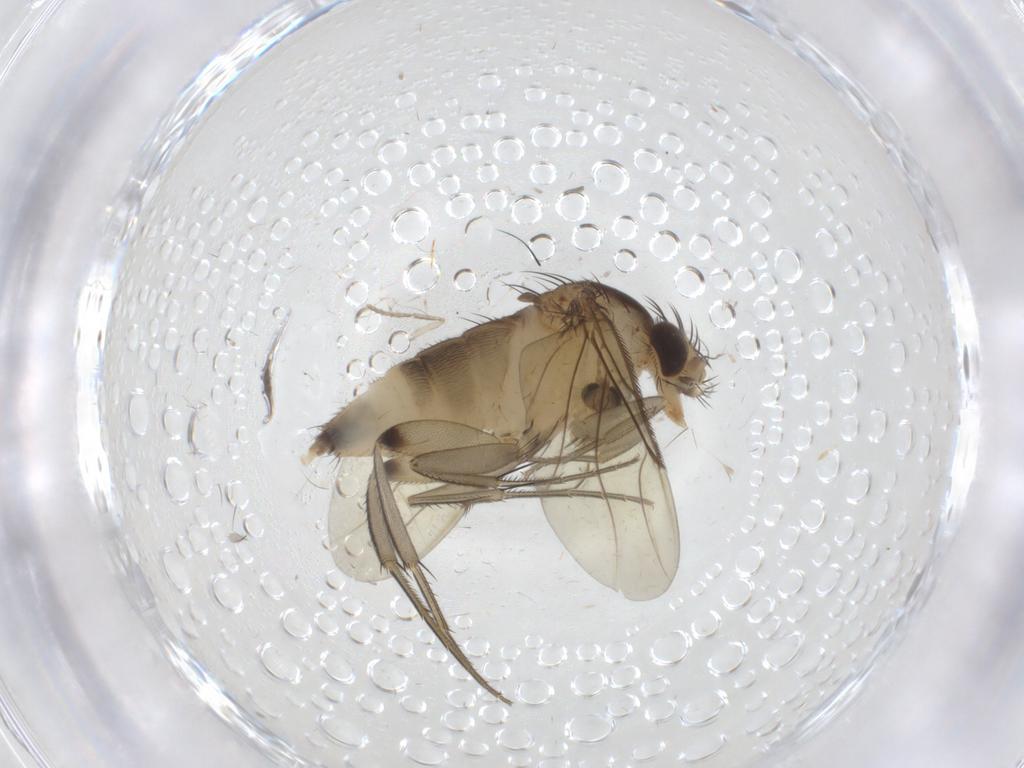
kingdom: Animalia
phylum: Arthropoda
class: Insecta
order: Diptera
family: Phoridae
